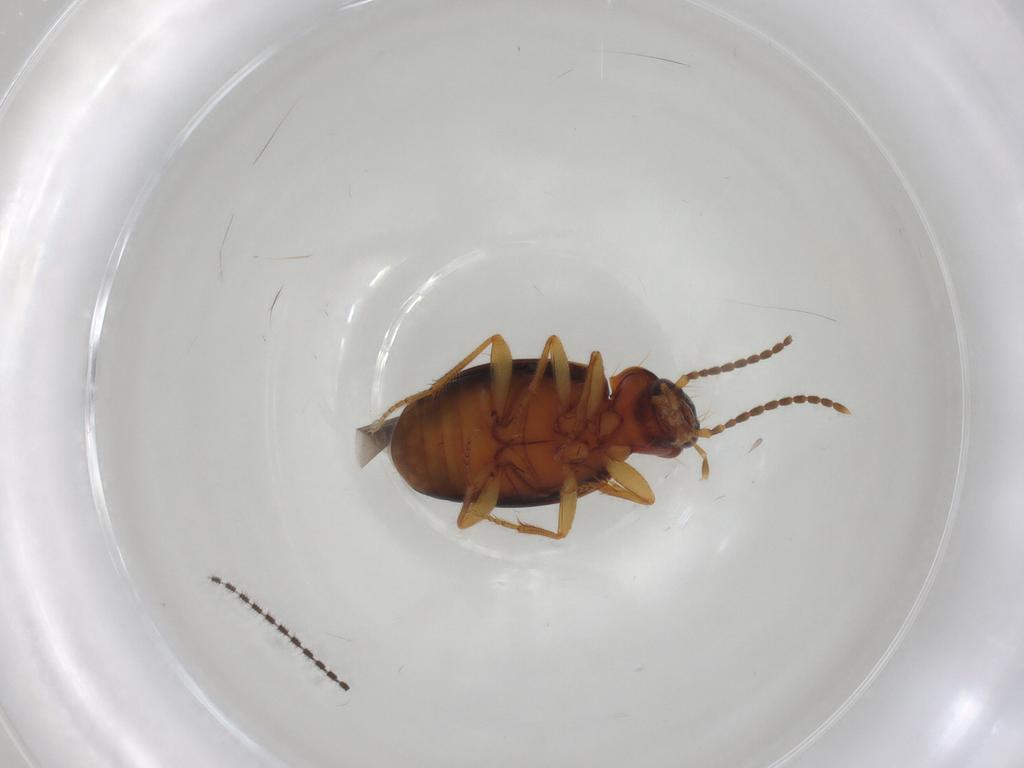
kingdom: Animalia
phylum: Arthropoda
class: Insecta
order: Coleoptera
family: Carabidae
